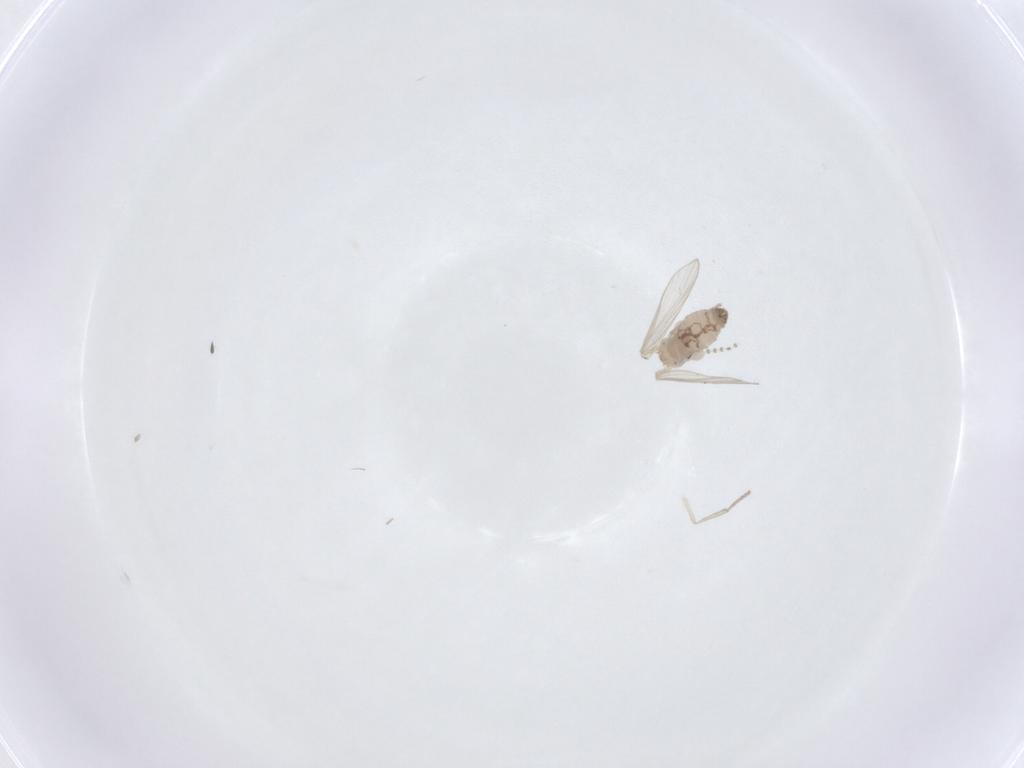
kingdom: Animalia
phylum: Arthropoda
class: Insecta
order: Diptera
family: Psychodidae
